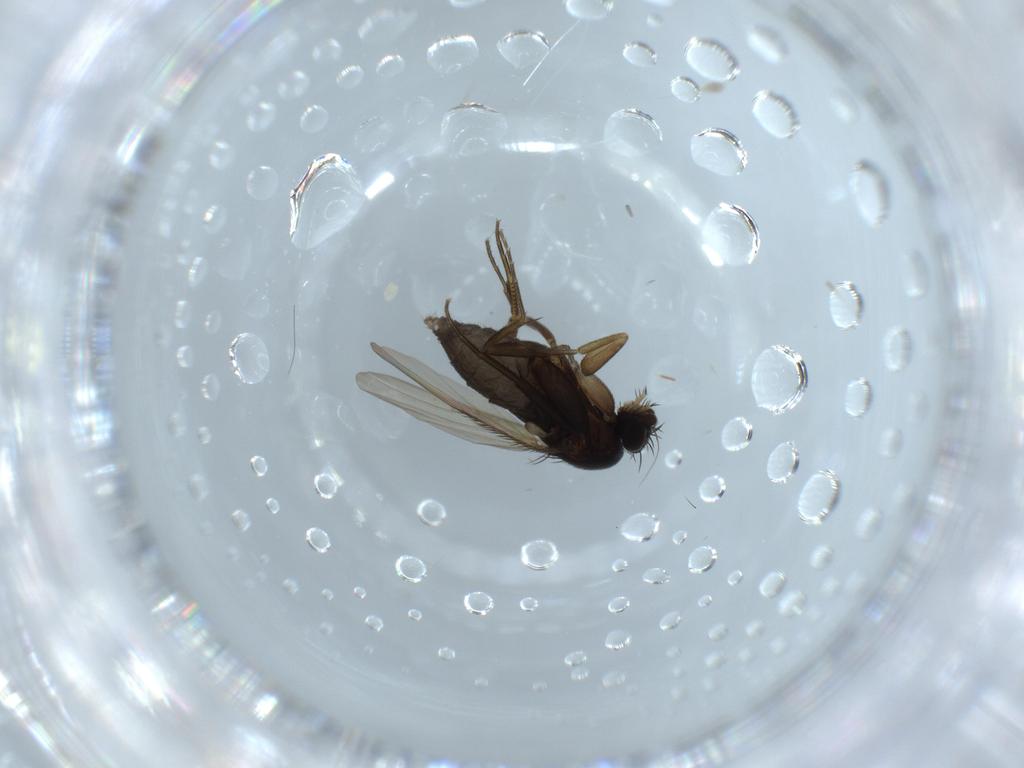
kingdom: Animalia
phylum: Arthropoda
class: Insecta
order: Diptera
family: Phoridae
